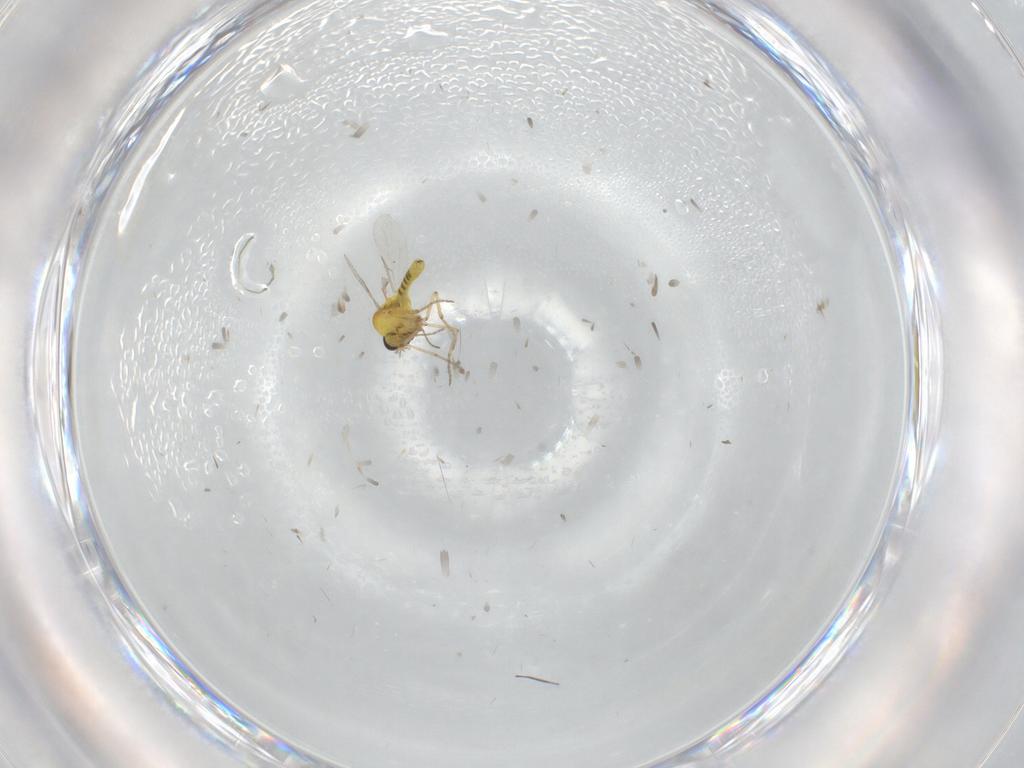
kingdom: Animalia
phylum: Arthropoda
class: Insecta
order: Diptera
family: Ceratopogonidae
